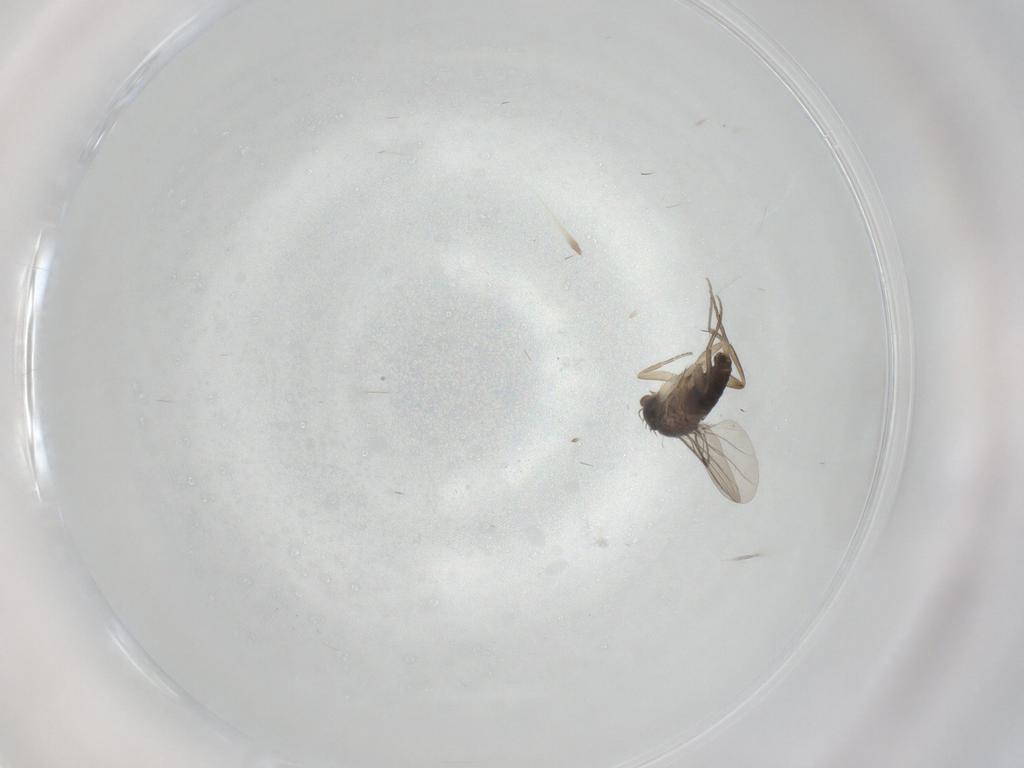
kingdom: Animalia
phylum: Arthropoda
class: Insecta
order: Diptera
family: Phoridae
